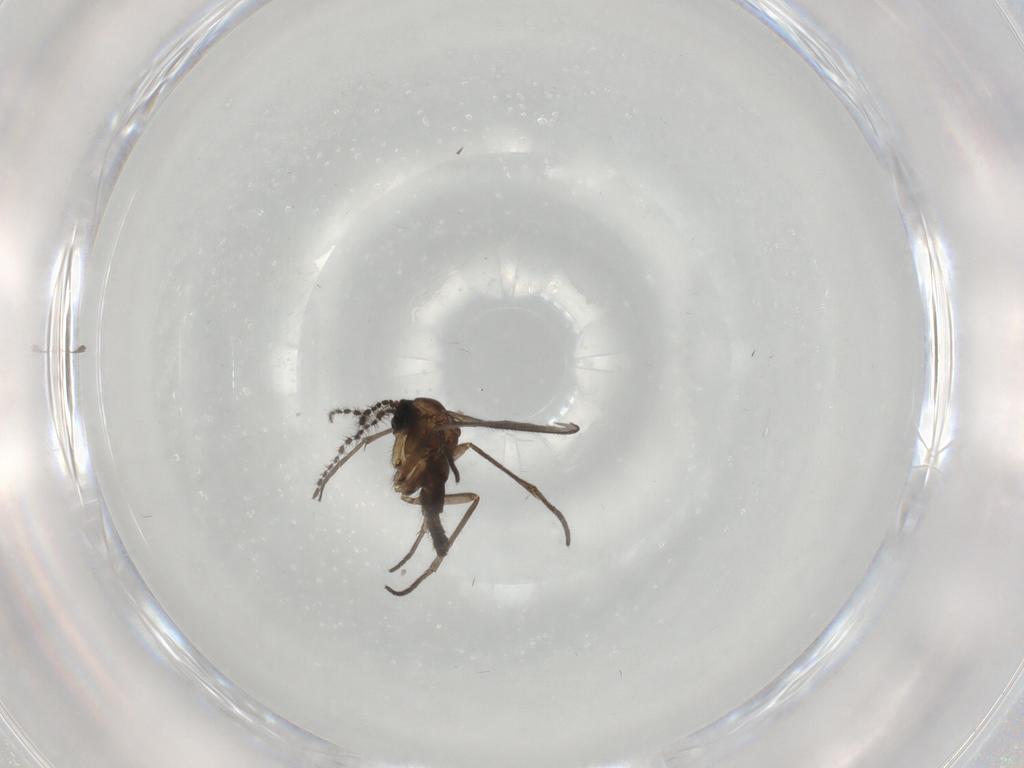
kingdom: Animalia
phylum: Arthropoda
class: Insecta
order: Diptera
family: Sciaridae
